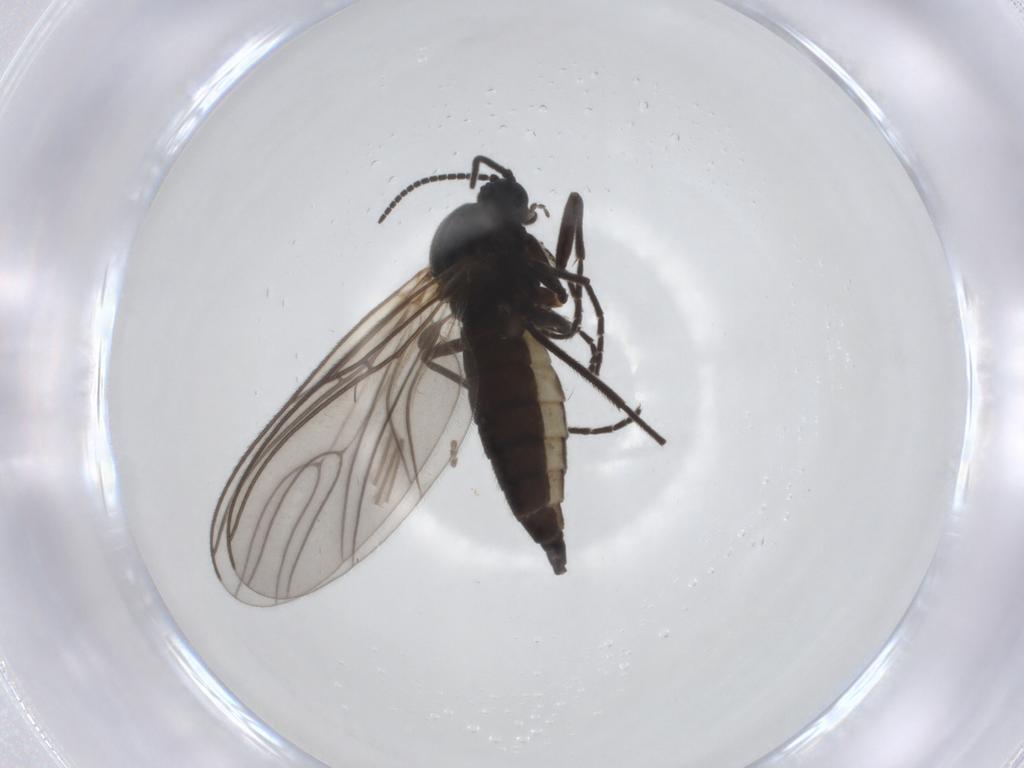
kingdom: Animalia
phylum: Arthropoda
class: Insecta
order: Diptera
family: Sciaridae
